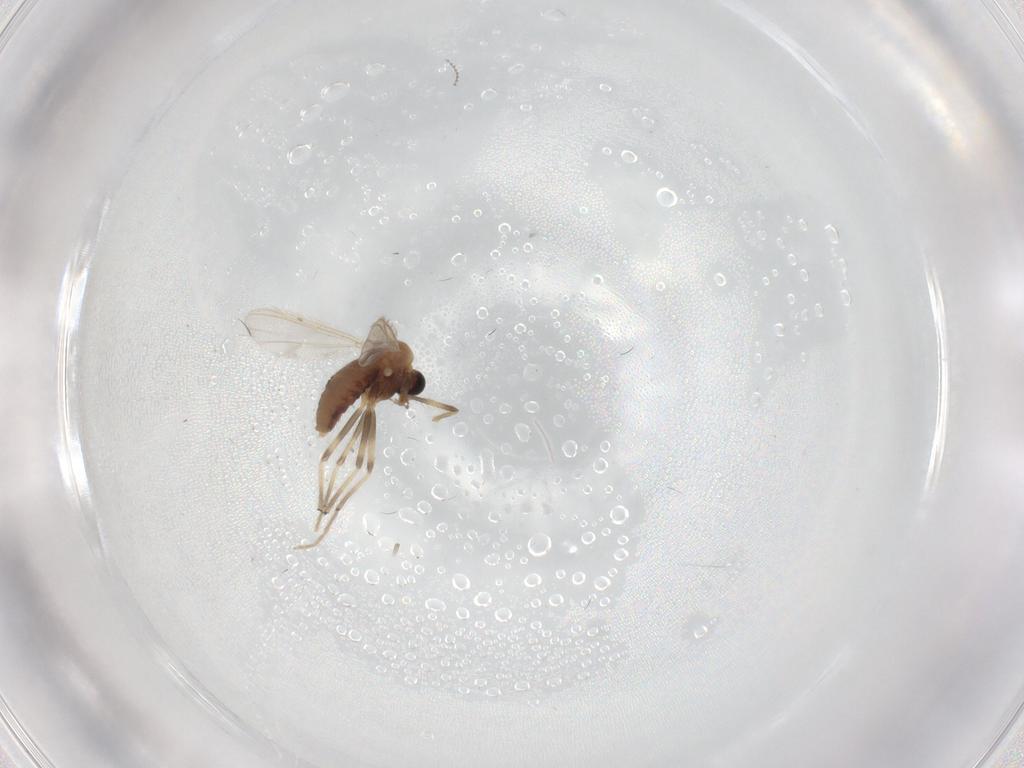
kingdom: Animalia
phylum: Arthropoda
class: Insecta
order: Diptera
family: Chironomidae
